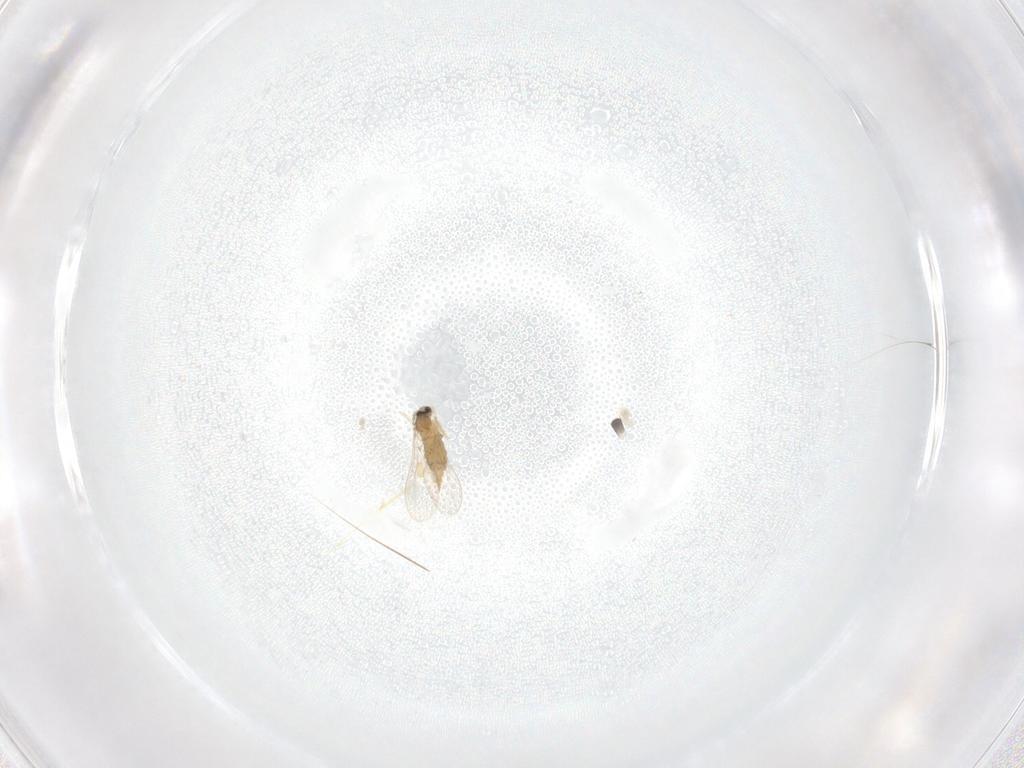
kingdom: Animalia
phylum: Arthropoda
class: Insecta
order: Diptera
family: Cecidomyiidae
